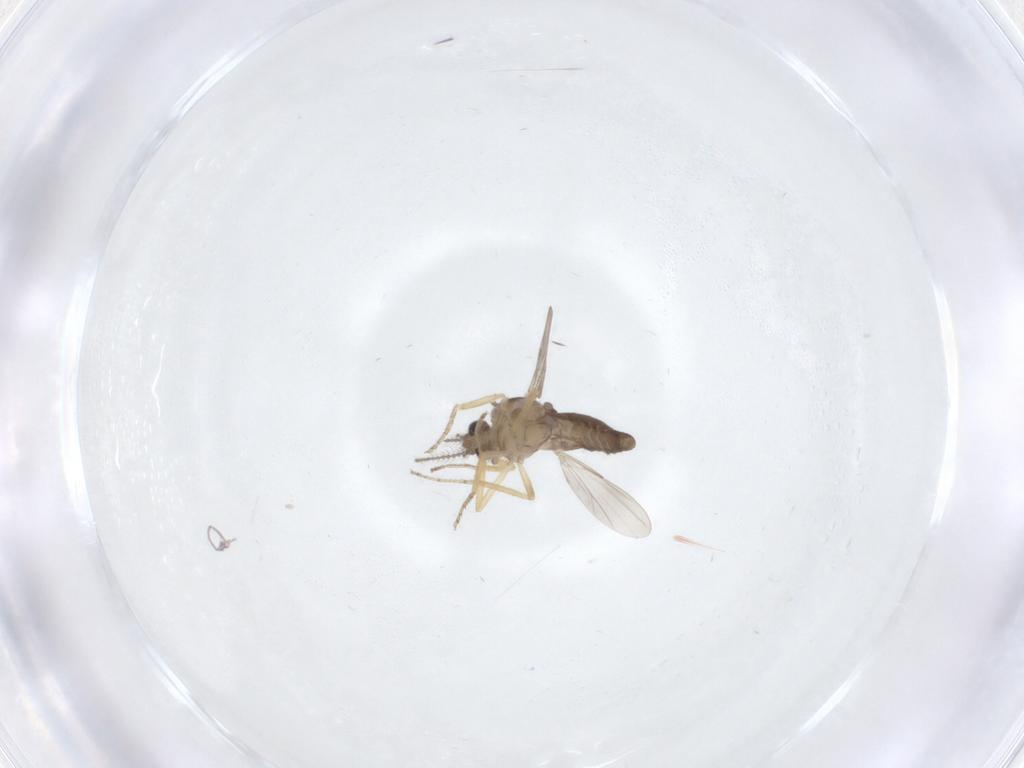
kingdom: Animalia
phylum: Arthropoda
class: Insecta
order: Diptera
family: Ceratopogonidae
